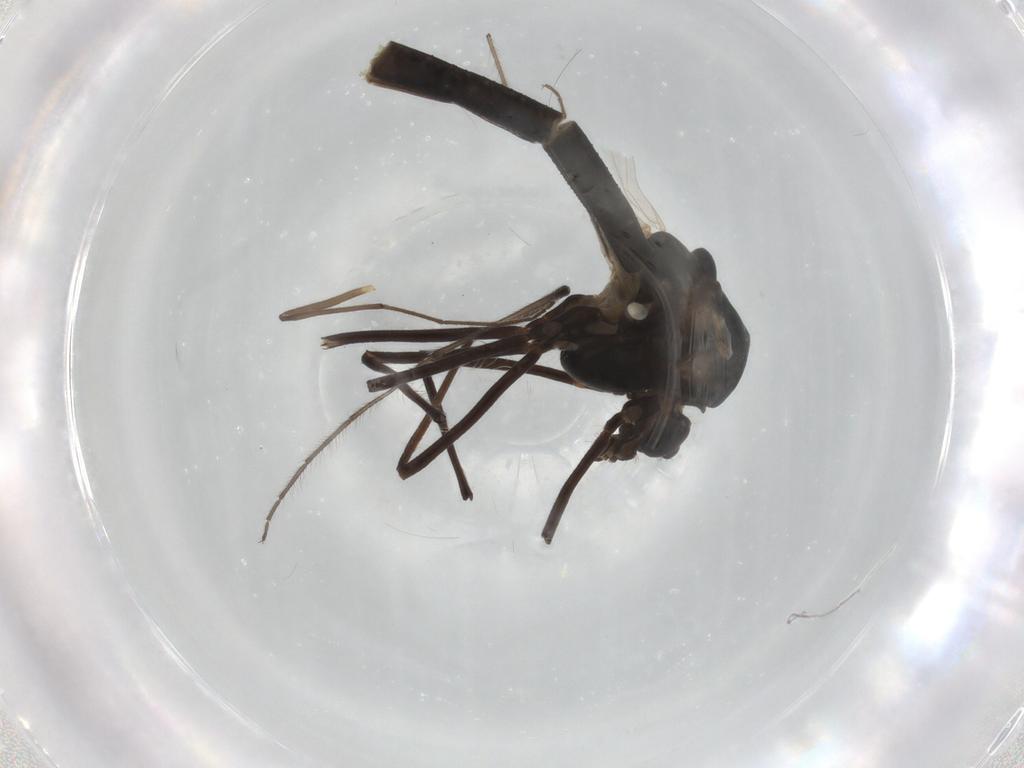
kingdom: Animalia
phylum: Arthropoda
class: Insecta
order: Diptera
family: Chironomidae
